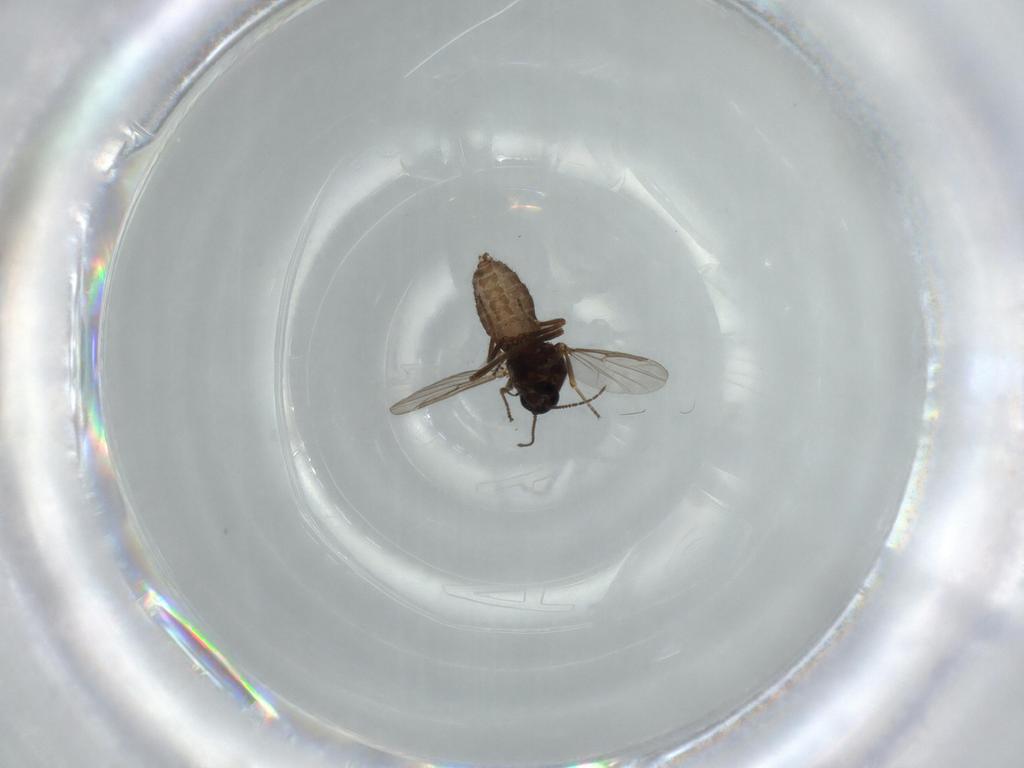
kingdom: Animalia
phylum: Arthropoda
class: Insecta
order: Diptera
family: Ceratopogonidae
